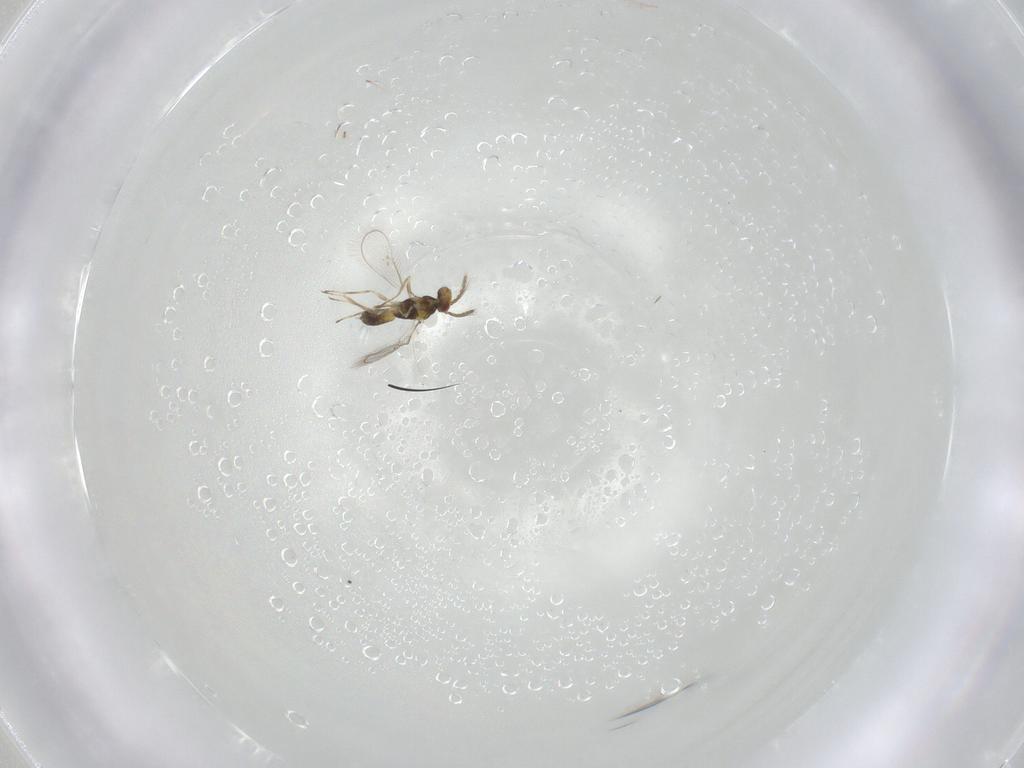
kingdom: Animalia
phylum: Arthropoda
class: Insecta
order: Hymenoptera
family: Eulophidae
